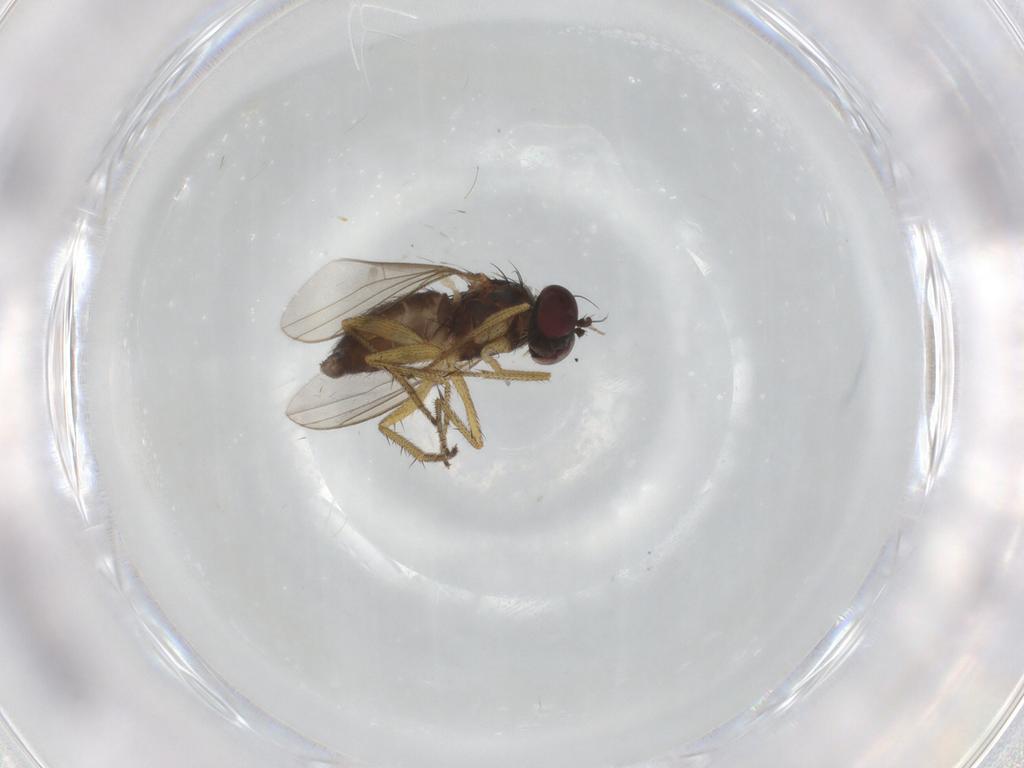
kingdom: Animalia
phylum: Arthropoda
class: Insecta
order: Diptera
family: Dolichopodidae
